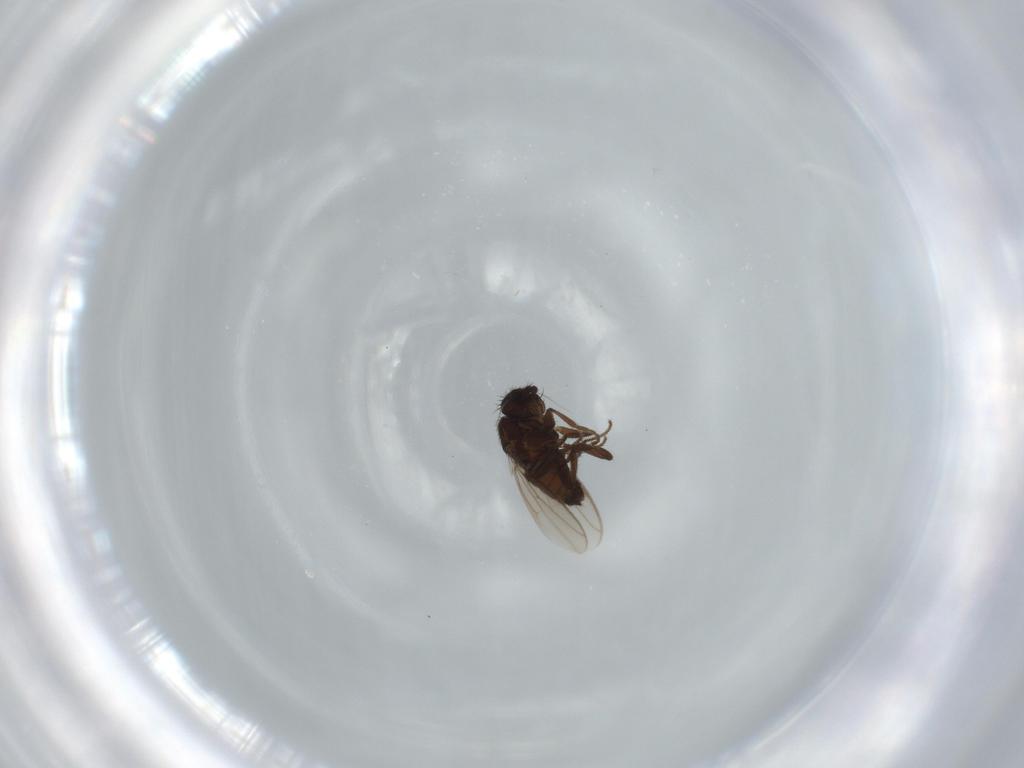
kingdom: Animalia
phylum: Arthropoda
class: Insecta
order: Diptera
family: Sphaeroceridae
